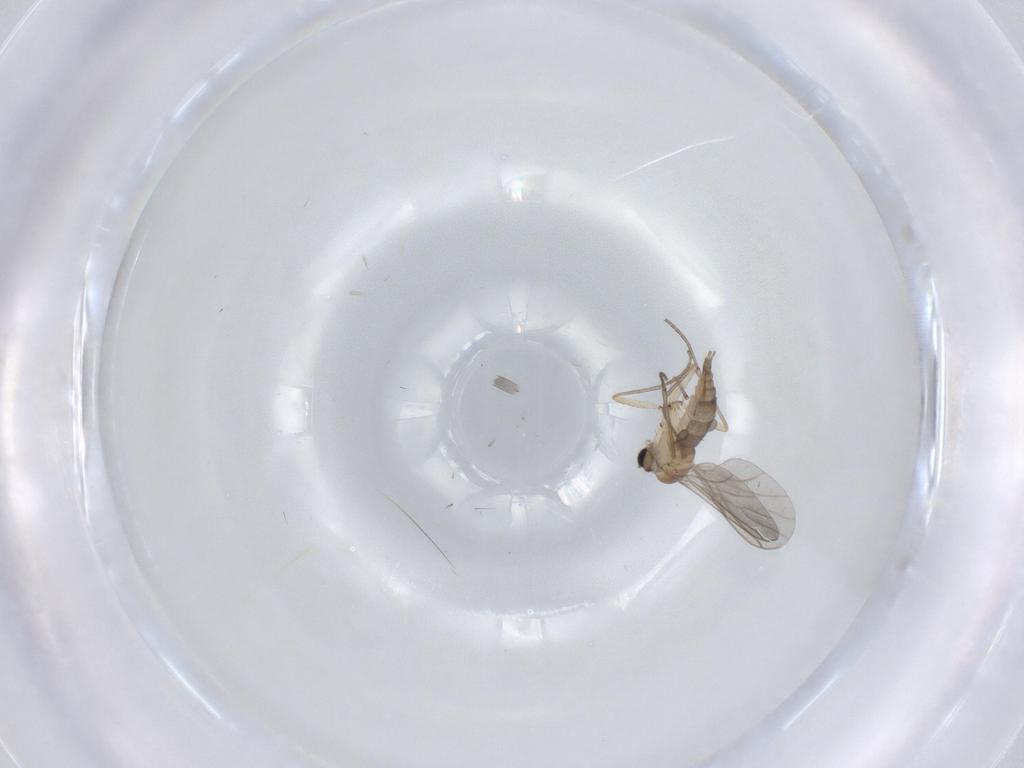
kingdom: Animalia
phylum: Arthropoda
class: Insecta
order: Diptera
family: Sciaridae
